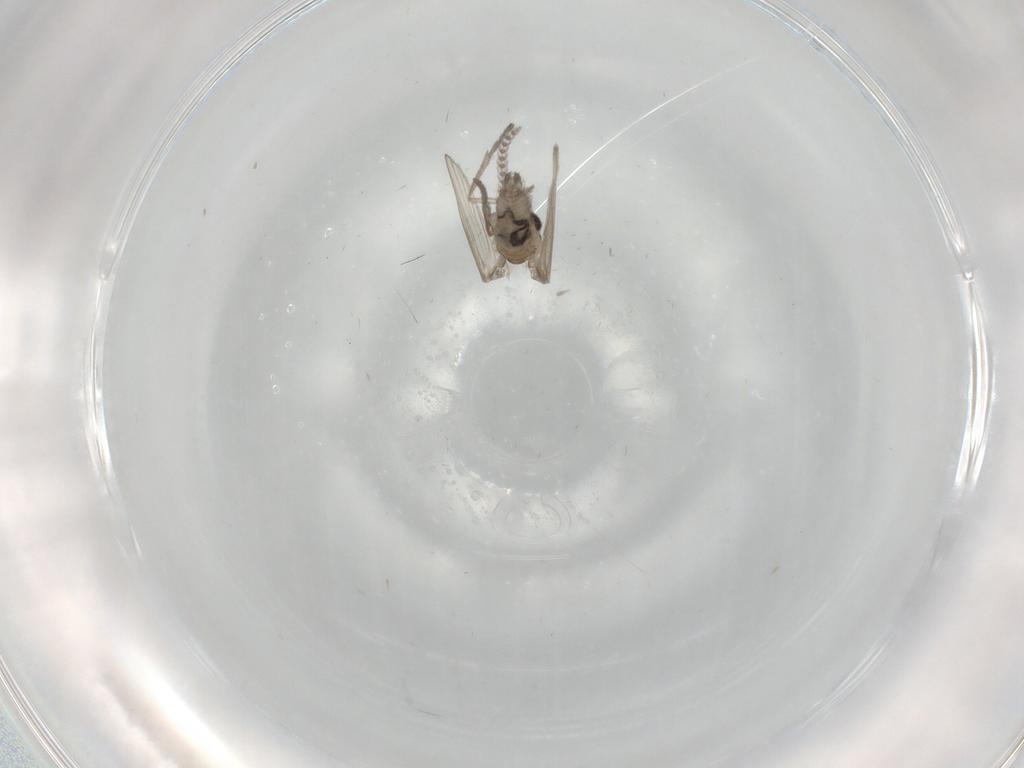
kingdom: Animalia
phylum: Arthropoda
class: Insecta
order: Diptera
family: Psychodidae
